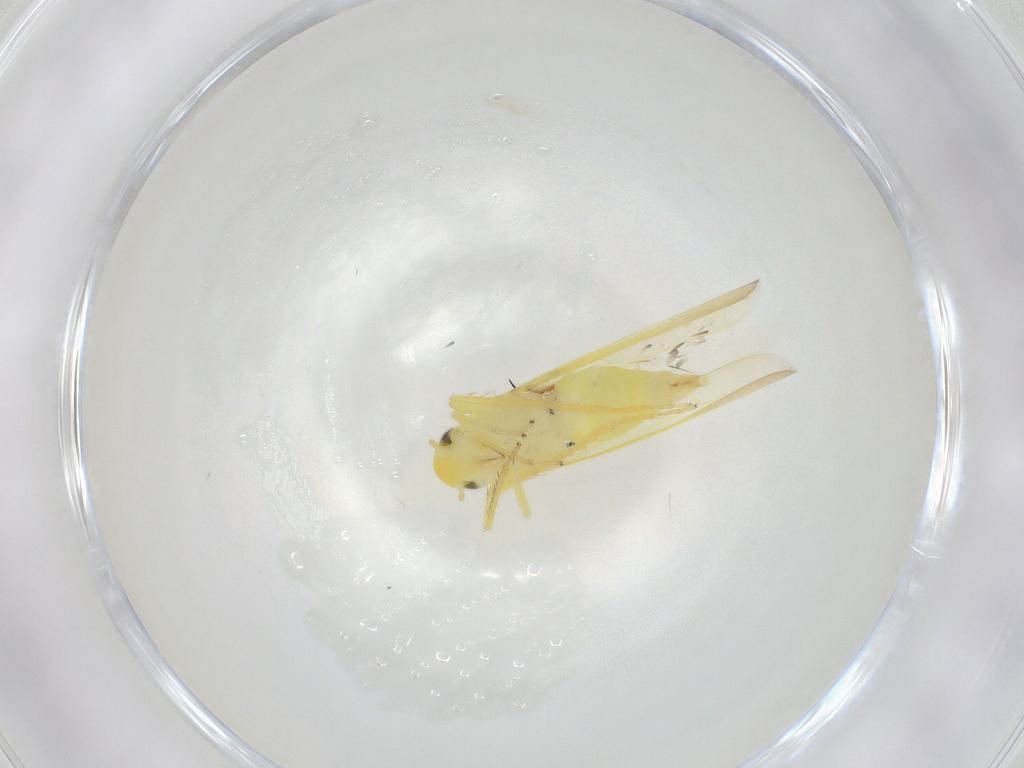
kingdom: Animalia
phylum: Arthropoda
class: Insecta
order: Hemiptera
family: Cicadellidae
